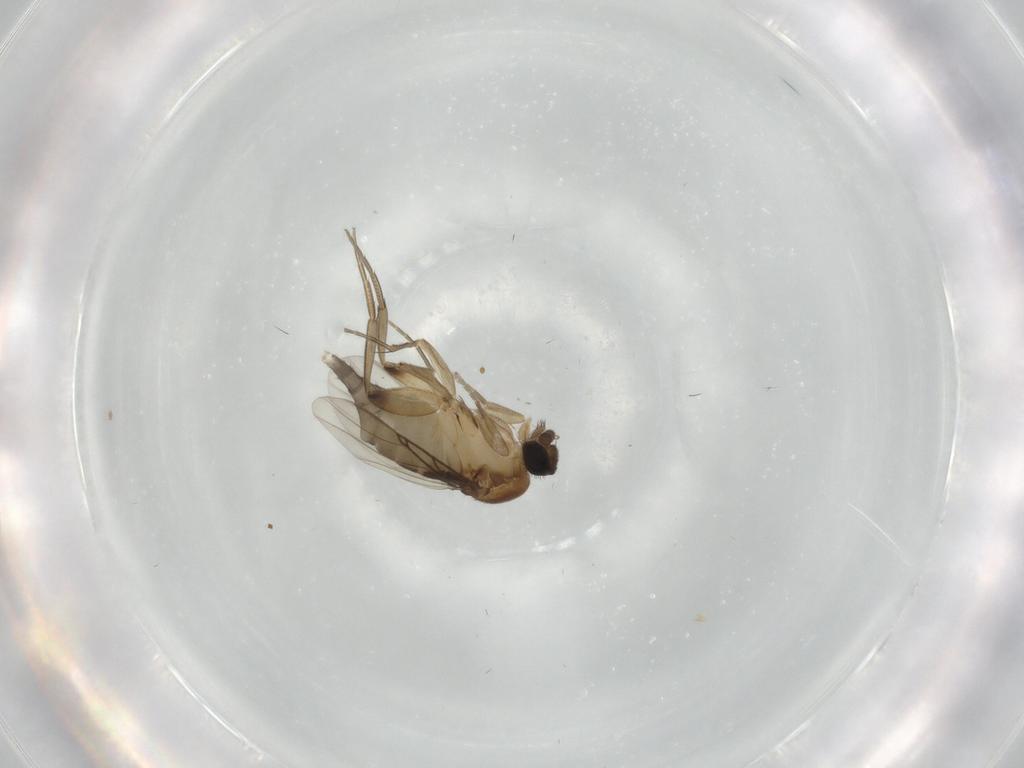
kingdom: Animalia
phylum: Arthropoda
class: Insecta
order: Diptera
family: Phoridae
